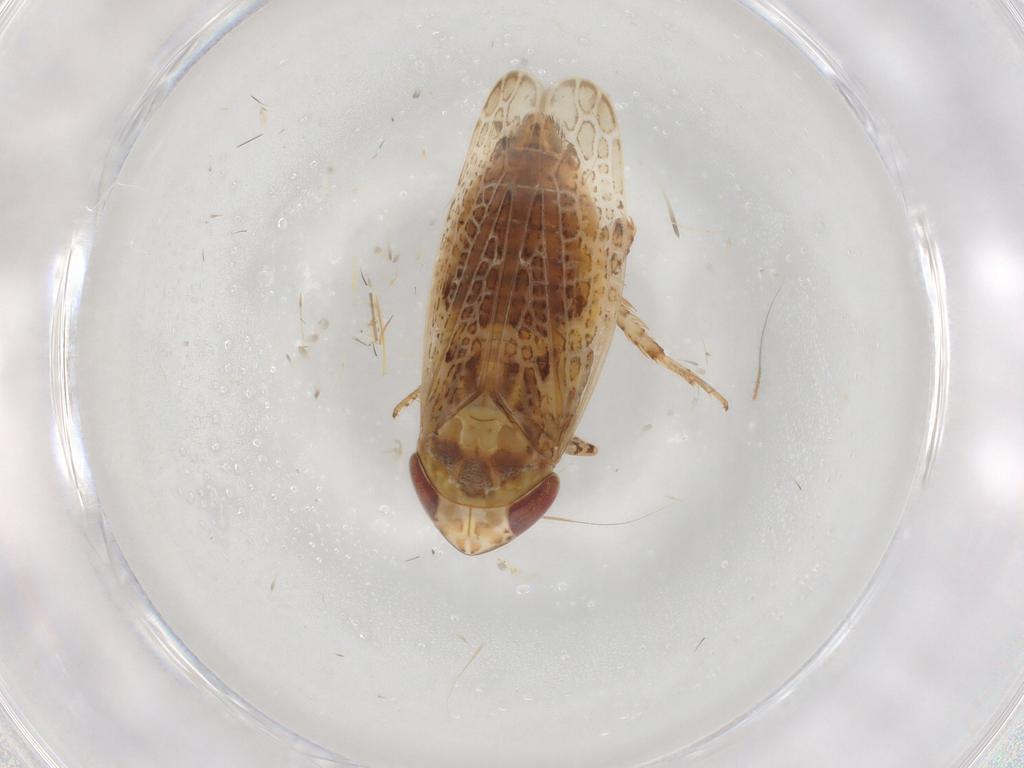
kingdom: Animalia
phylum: Arthropoda
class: Insecta
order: Hemiptera
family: Cicadellidae
